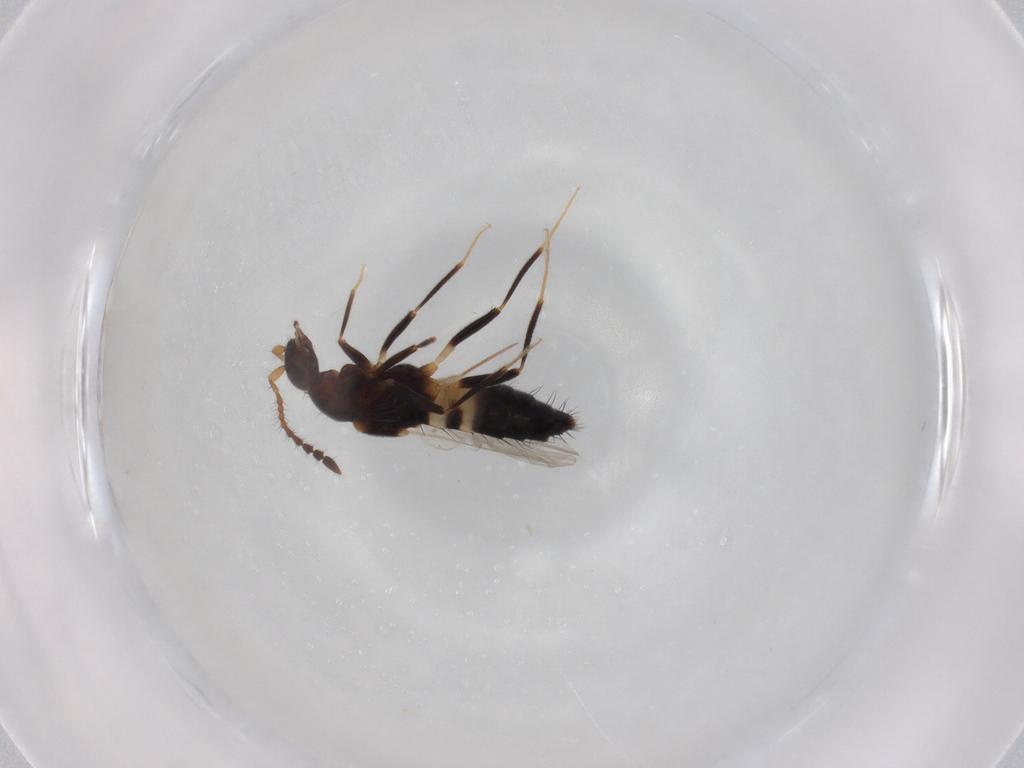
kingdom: Animalia
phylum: Arthropoda
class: Insecta
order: Coleoptera
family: Staphylinidae
